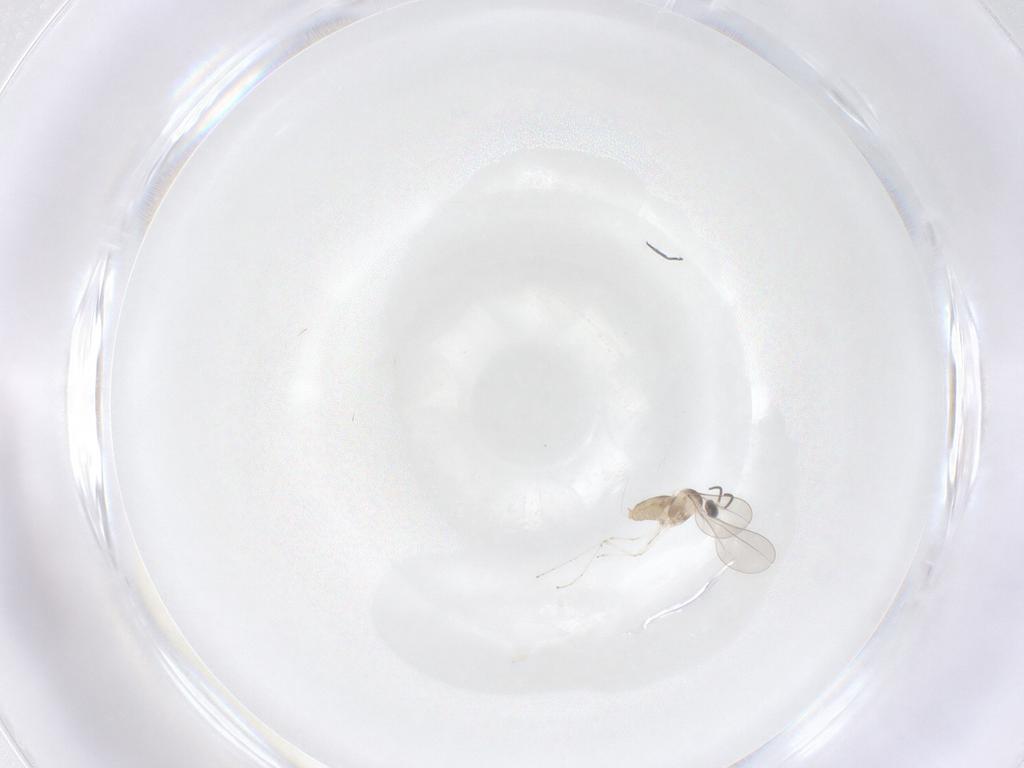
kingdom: Animalia
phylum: Arthropoda
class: Insecta
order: Diptera
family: Cecidomyiidae
